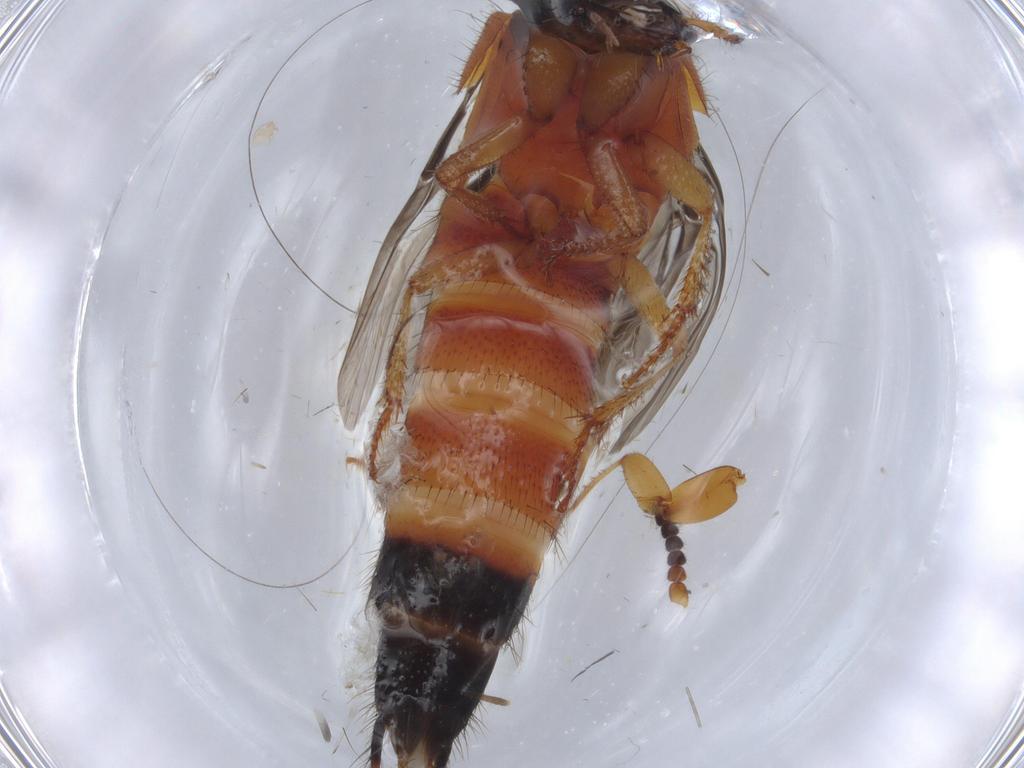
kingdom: Animalia
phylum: Arthropoda
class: Insecta
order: Coleoptera
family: Staphylinidae
